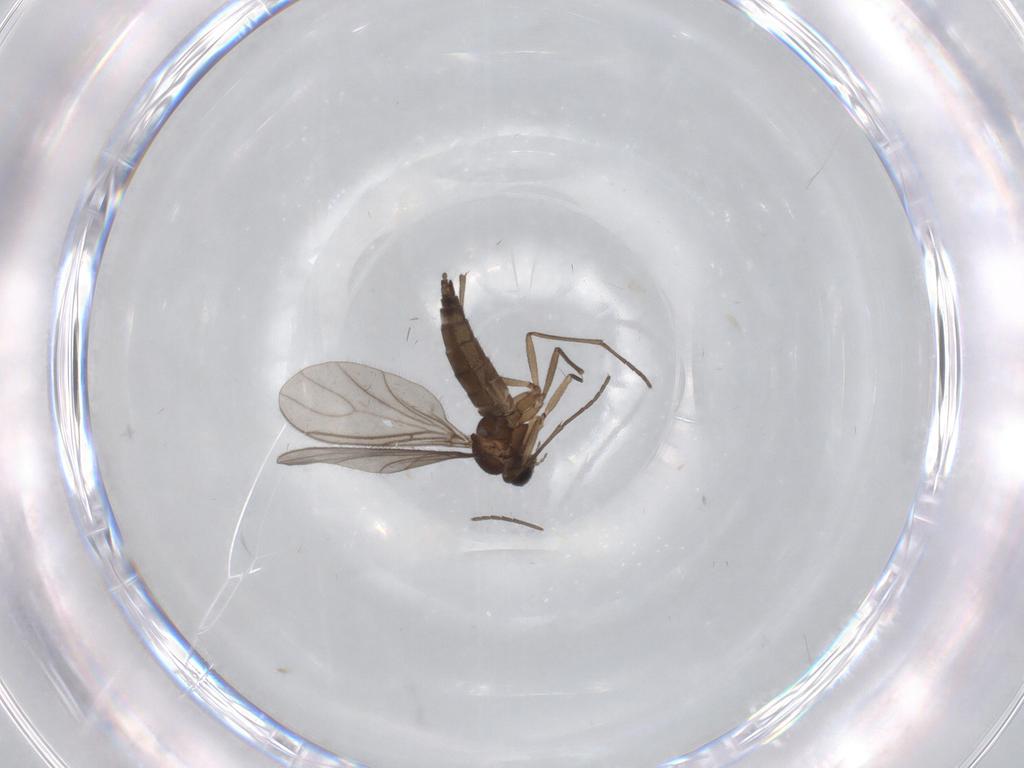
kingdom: Animalia
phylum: Arthropoda
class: Insecta
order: Diptera
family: Sciaridae
